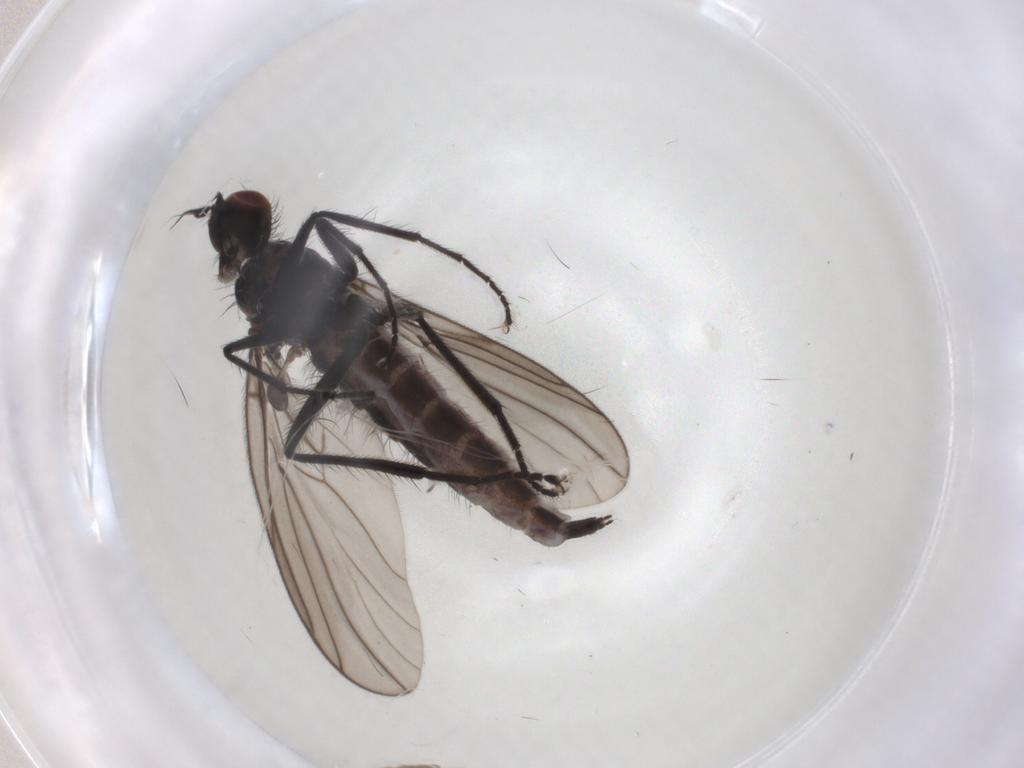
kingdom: Animalia
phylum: Arthropoda
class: Insecta
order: Diptera
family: Hybotidae
